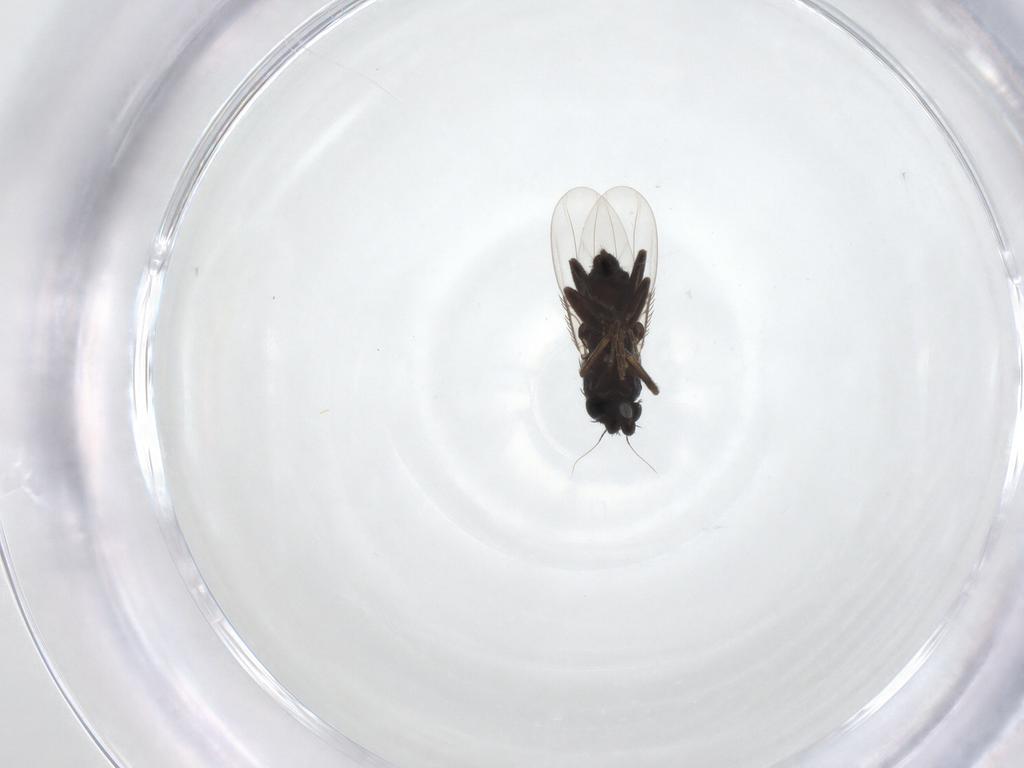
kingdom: Animalia
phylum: Arthropoda
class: Insecta
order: Diptera
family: Phoridae
